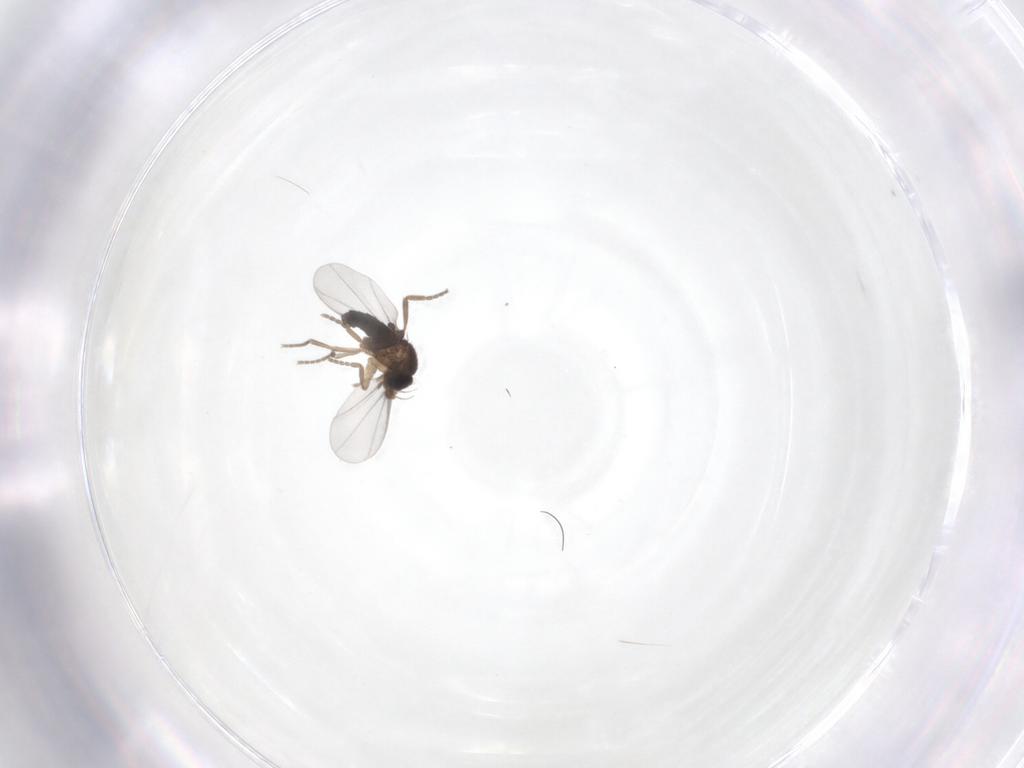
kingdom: Animalia
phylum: Arthropoda
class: Insecta
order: Diptera
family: Phoridae
